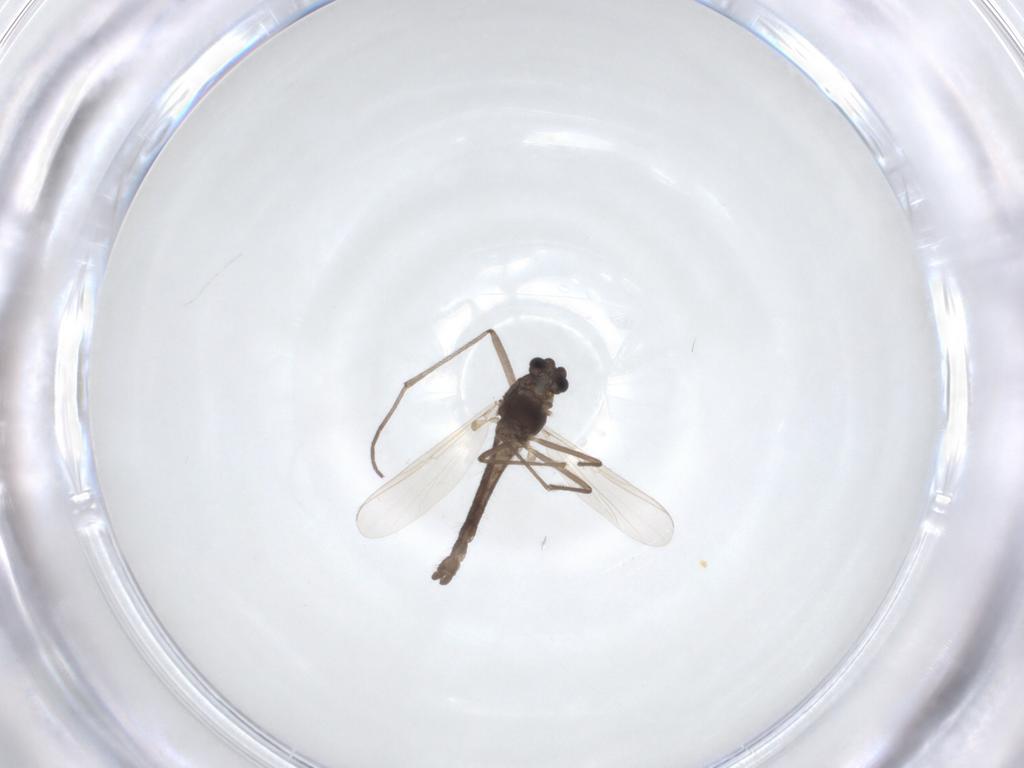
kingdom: Animalia
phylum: Arthropoda
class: Insecta
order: Diptera
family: Chironomidae
